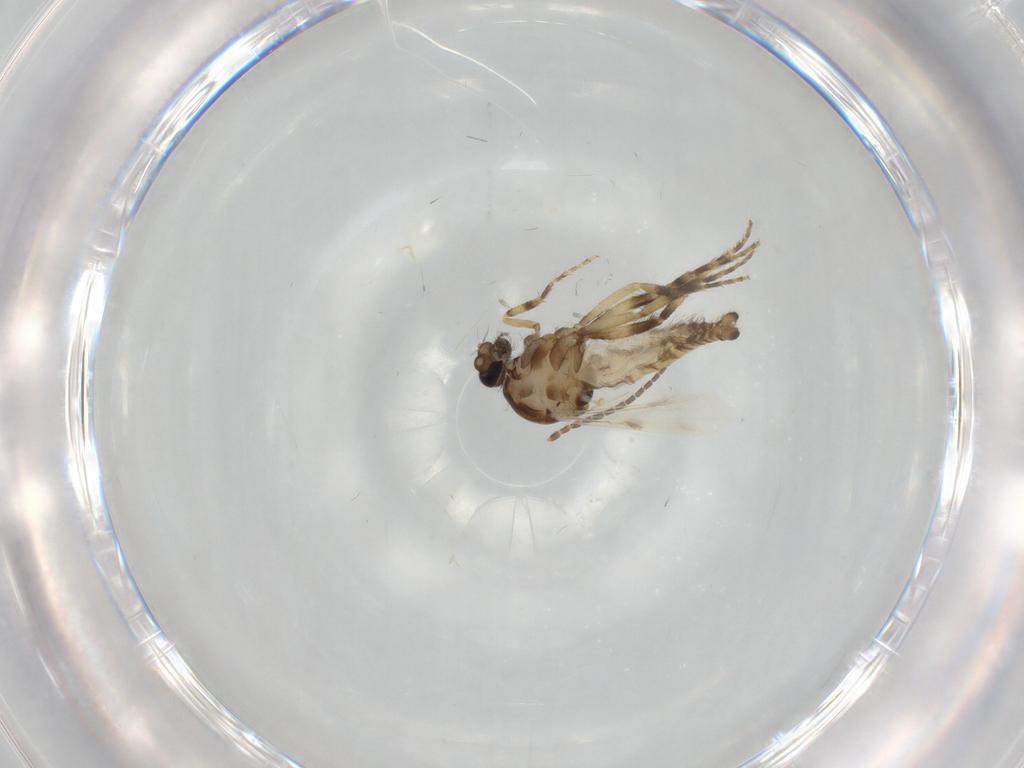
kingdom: Animalia
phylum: Arthropoda
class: Insecta
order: Diptera
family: Ceratopogonidae
